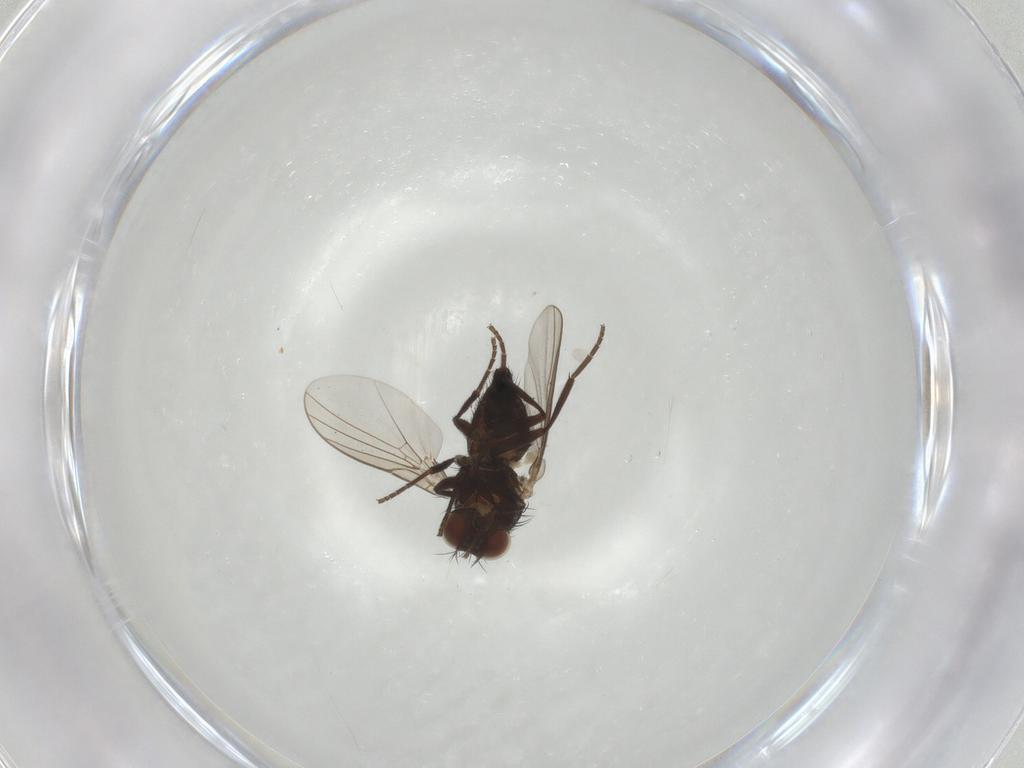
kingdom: Animalia
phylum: Arthropoda
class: Insecta
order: Diptera
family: Agromyzidae
